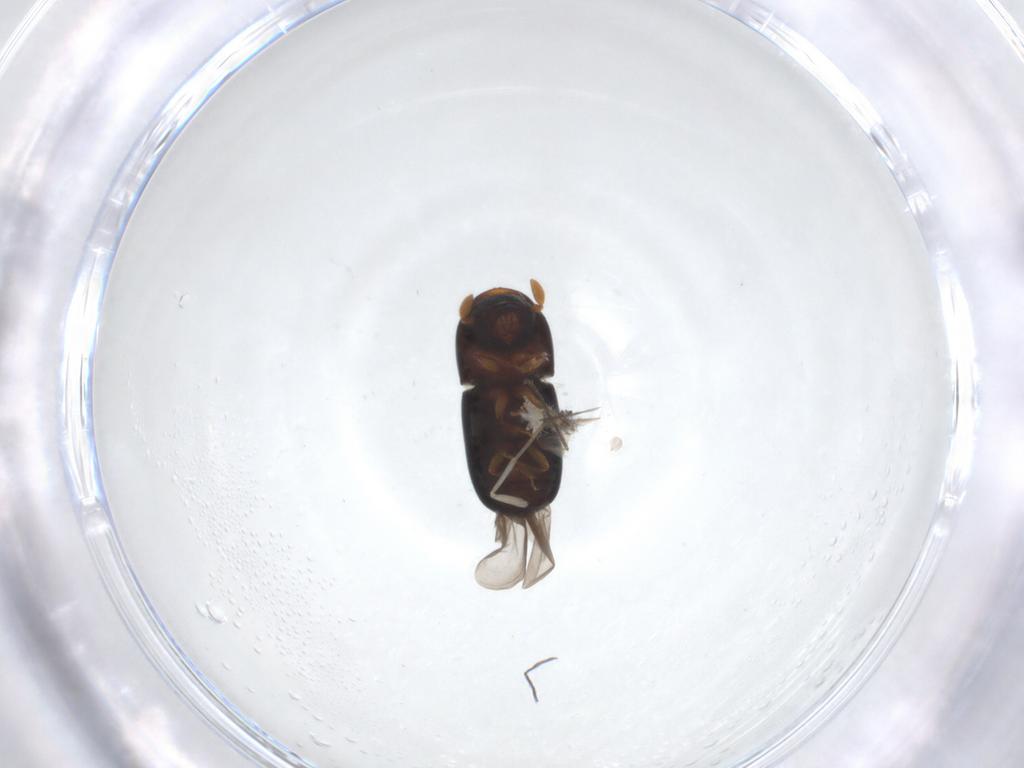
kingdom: Animalia
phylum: Arthropoda
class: Insecta
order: Coleoptera
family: Curculionidae
